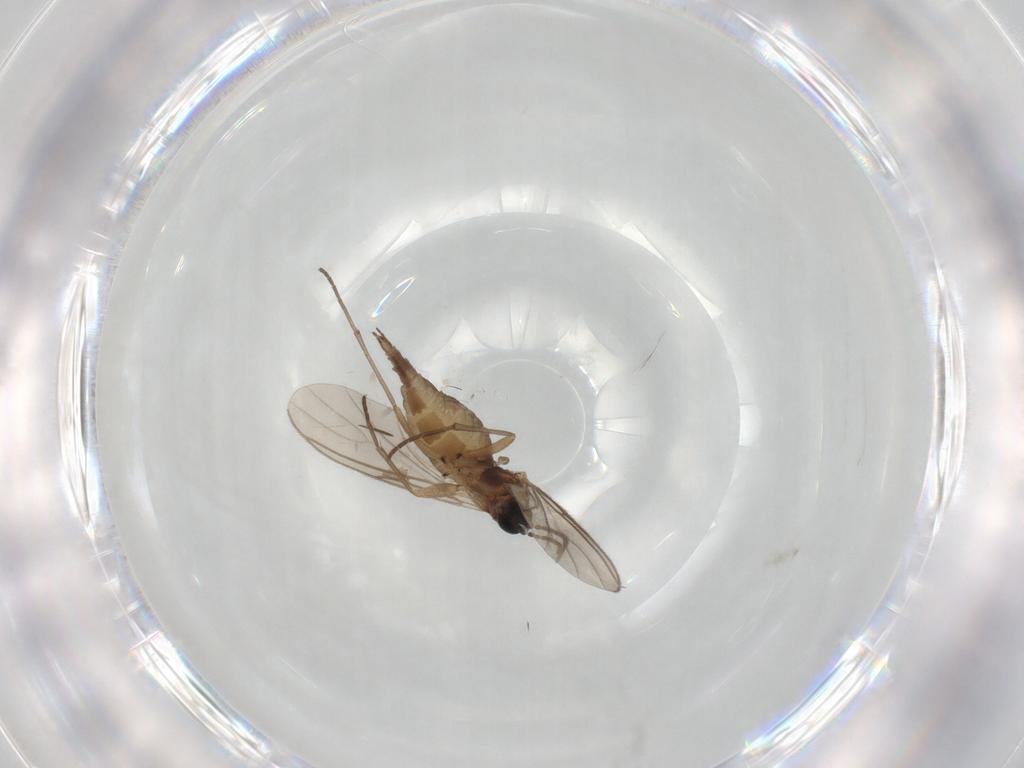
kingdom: Animalia
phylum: Arthropoda
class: Insecta
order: Diptera
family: Sciaridae
